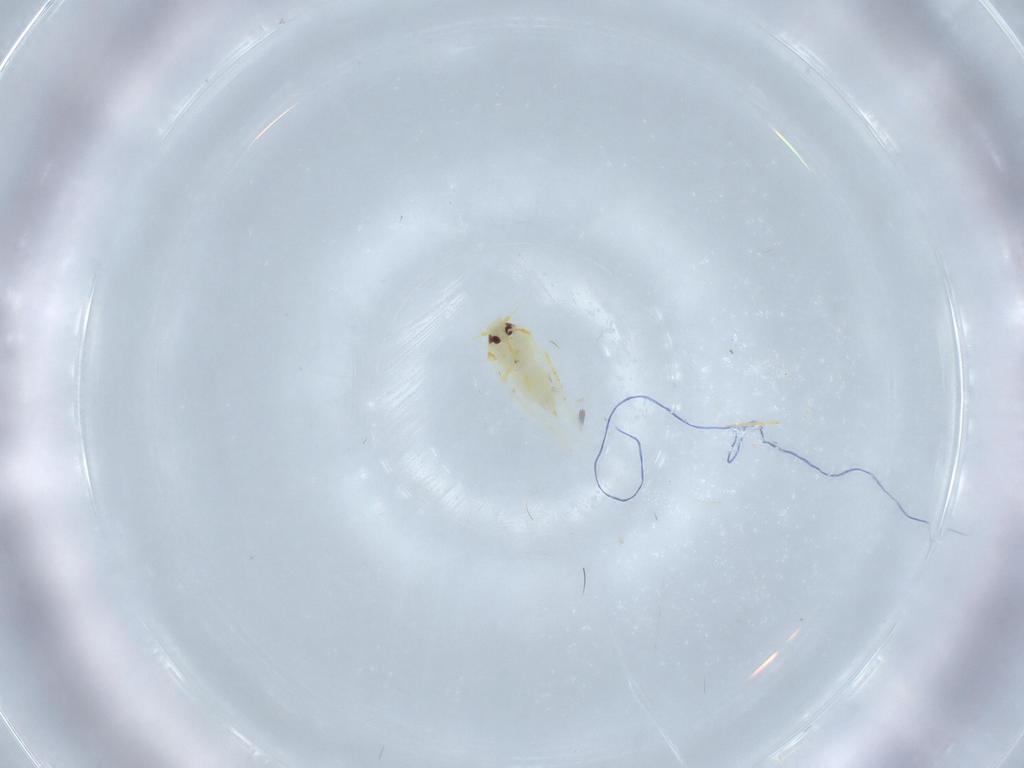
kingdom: Animalia
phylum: Arthropoda
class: Insecta
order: Hemiptera
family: Aleyrodidae
